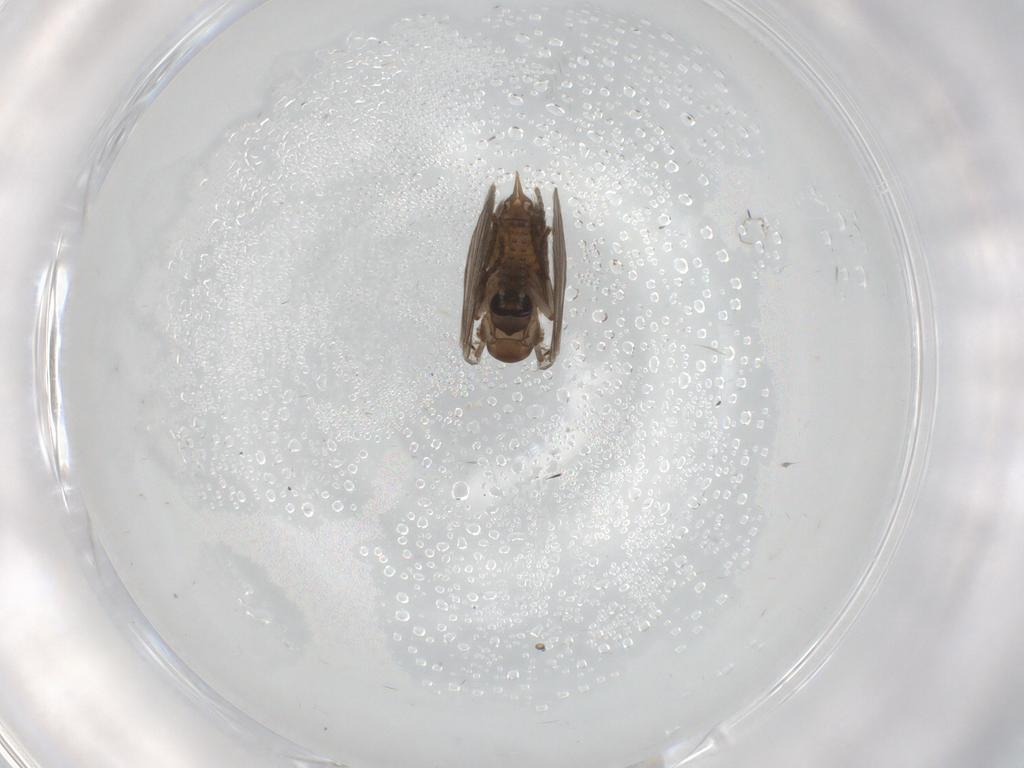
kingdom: Animalia
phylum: Arthropoda
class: Insecta
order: Diptera
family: Psychodidae
